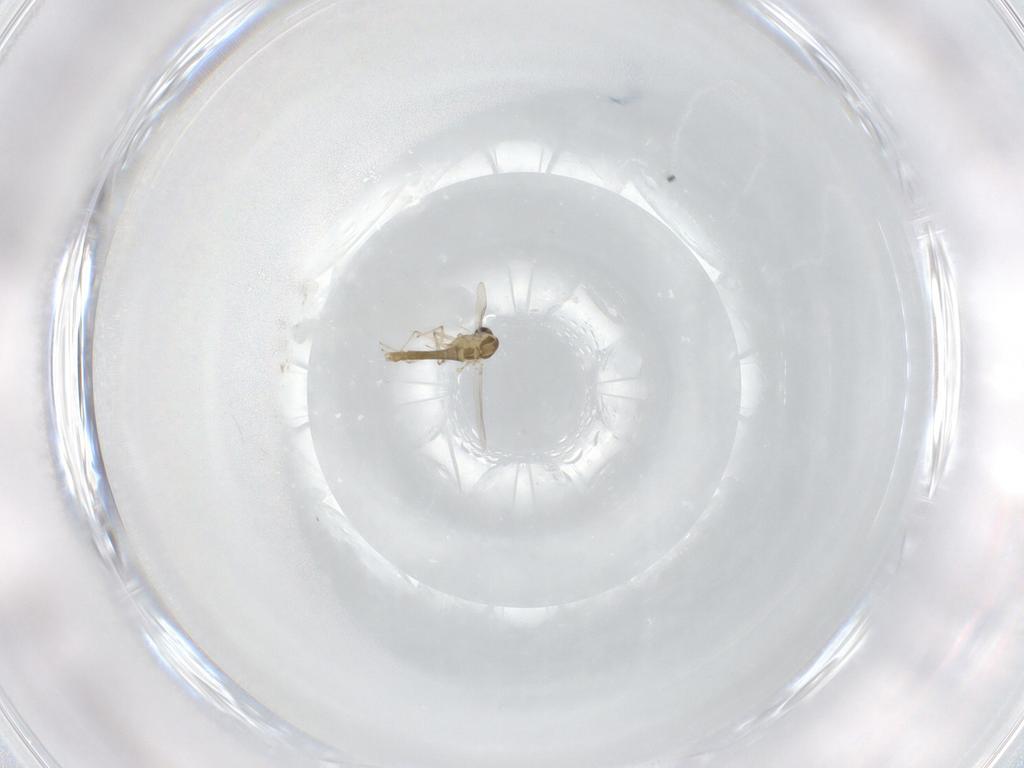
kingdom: Animalia
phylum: Arthropoda
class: Insecta
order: Diptera
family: Chironomidae
